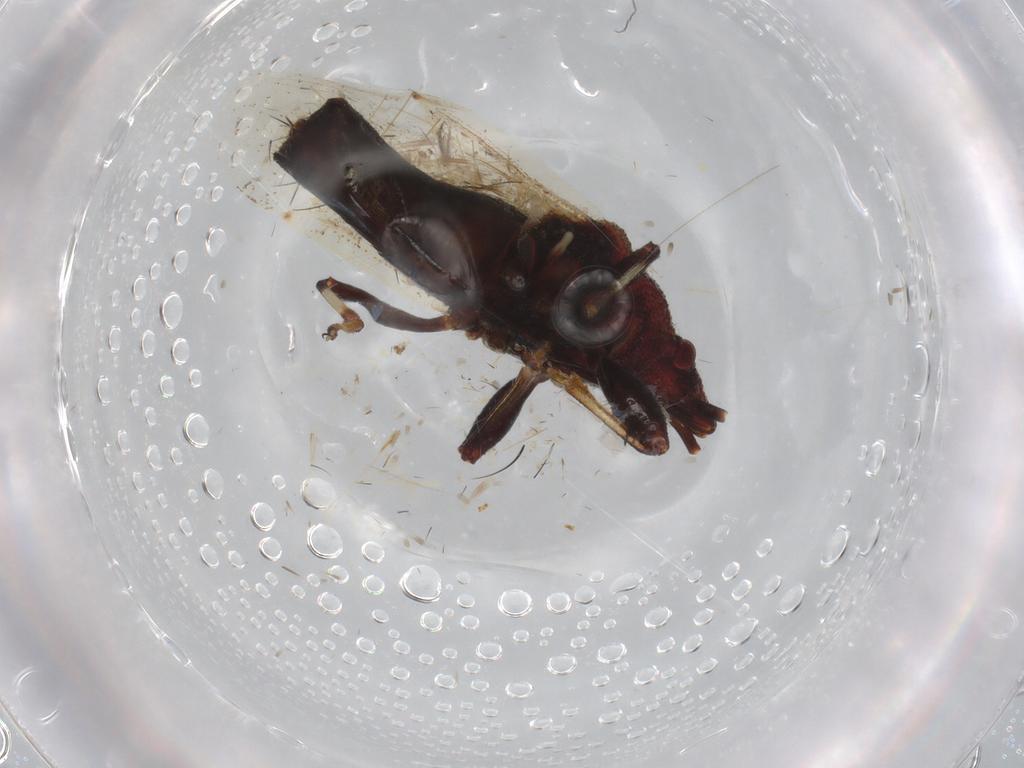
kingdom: Animalia
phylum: Arthropoda
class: Insecta
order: Hemiptera
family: Oxycarenidae
